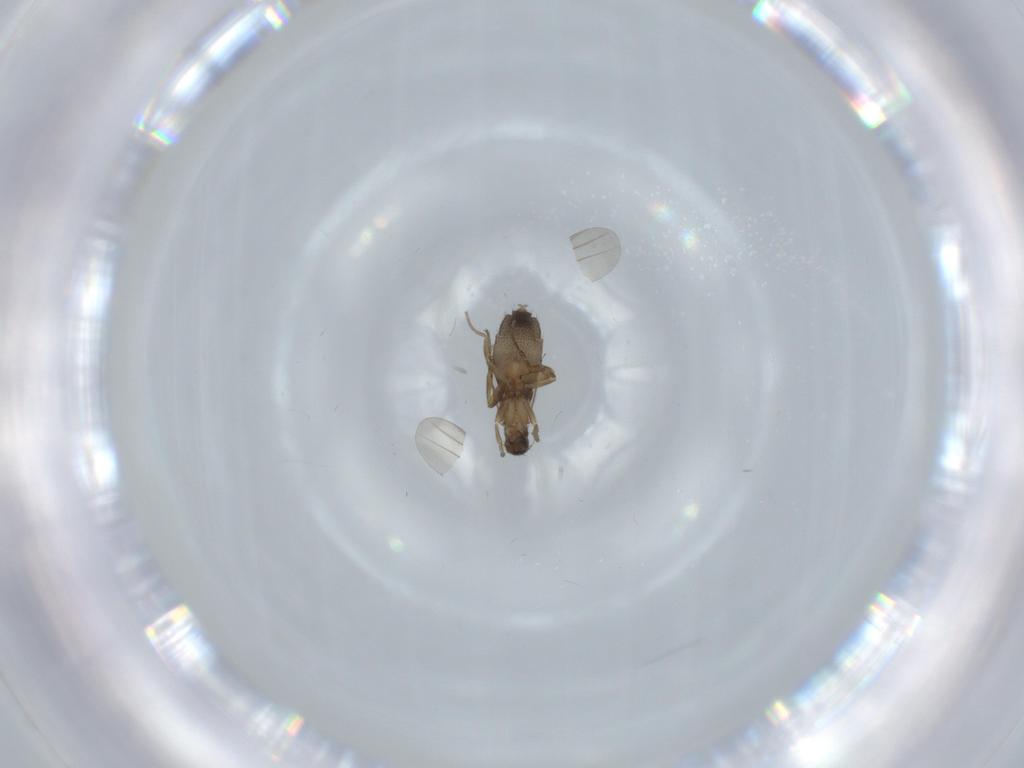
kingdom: Animalia
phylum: Arthropoda
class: Insecta
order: Diptera
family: Phoridae
